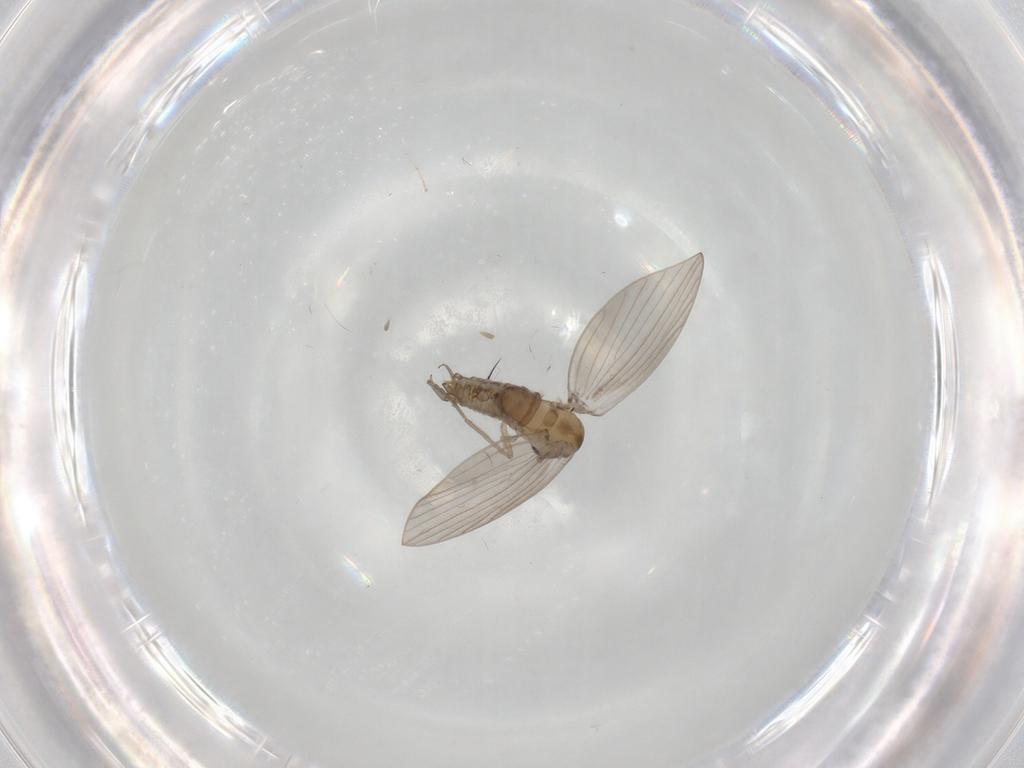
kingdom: Animalia
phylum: Arthropoda
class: Insecta
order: Diptera
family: Psychodidae
